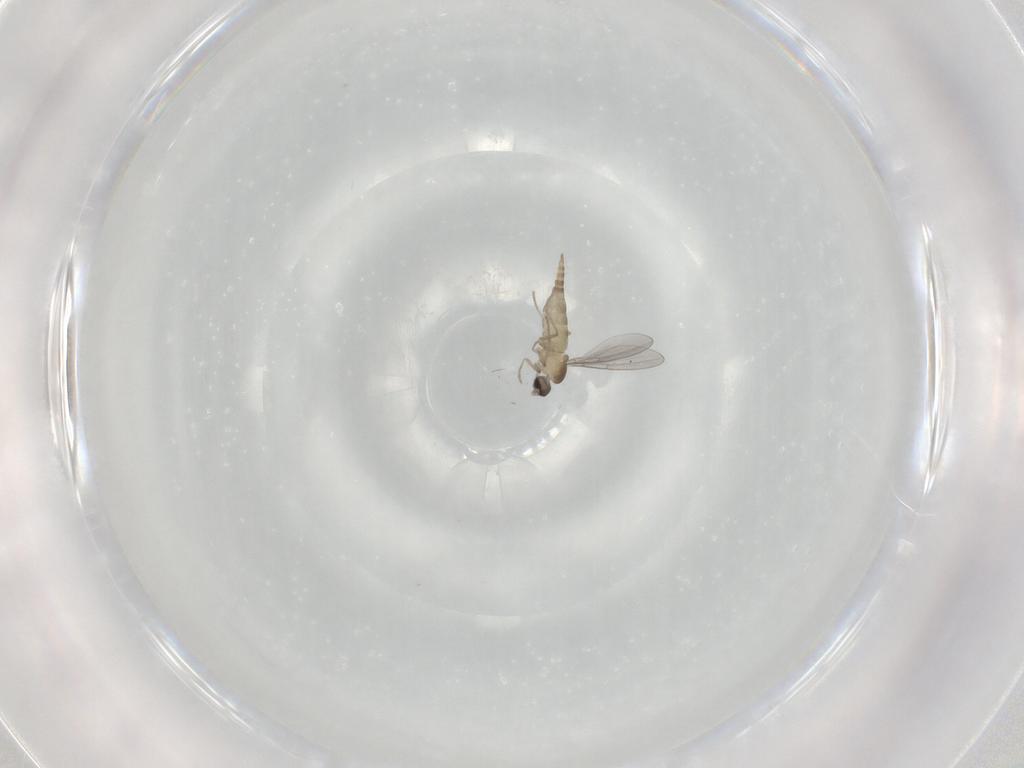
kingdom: Animalia
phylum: Arthropoda
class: Insecta
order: Diptera
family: Cecidomyiidae
